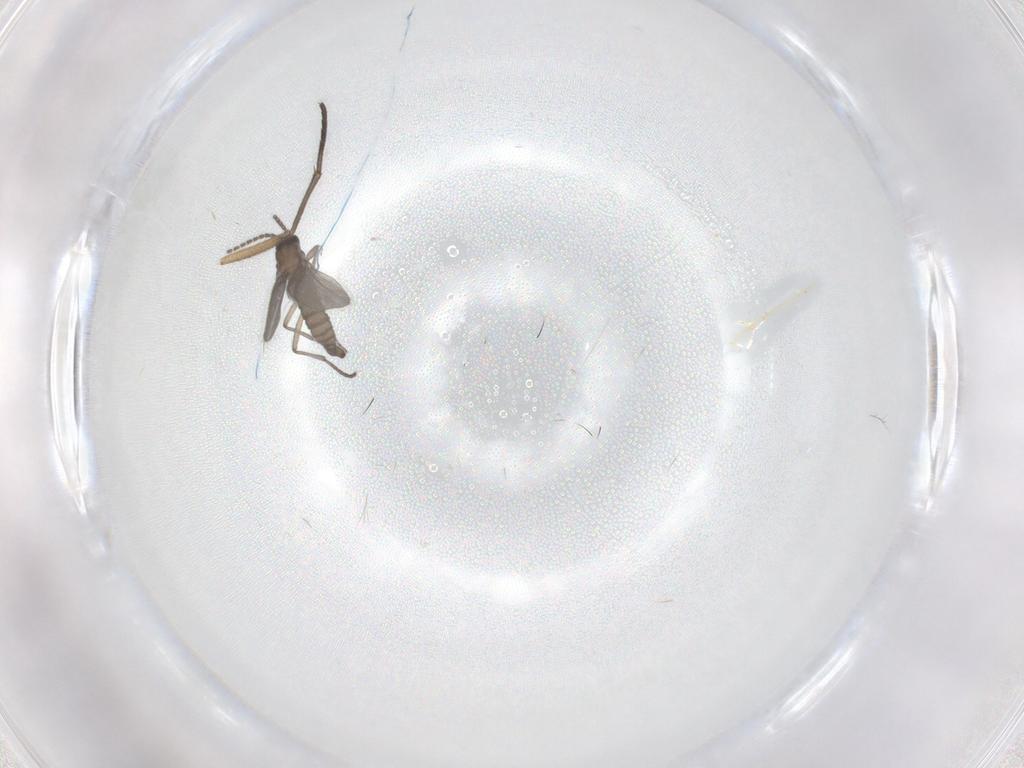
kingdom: Animalia
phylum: Arthropoda
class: Insecta
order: Diptera
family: Sciaridae
